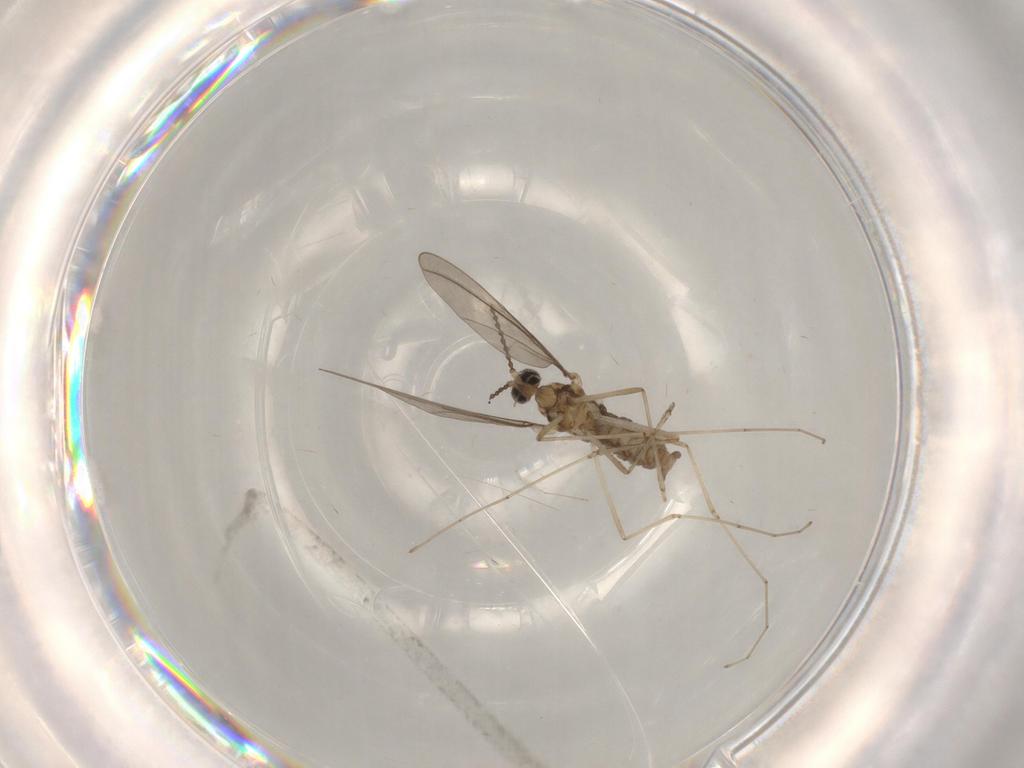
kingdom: Animalia
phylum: Arthropoda
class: Insecta
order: Diptera
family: Cecidomyiidae
